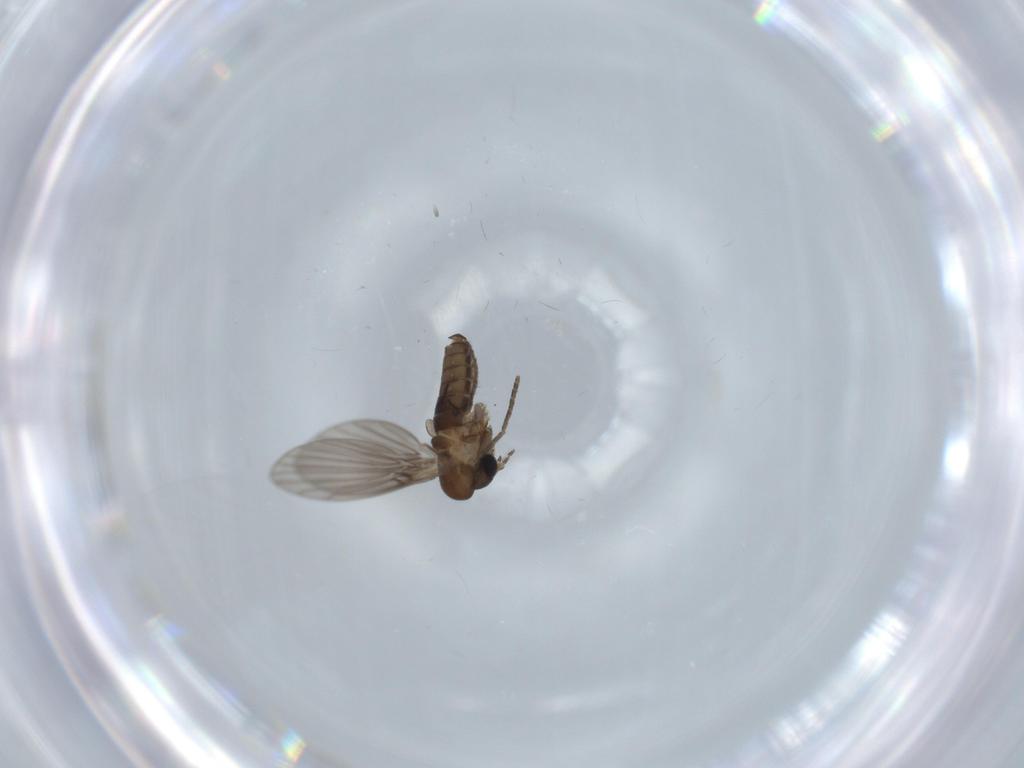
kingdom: Animalia
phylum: Arthropoda
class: Insecta
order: Diptera
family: Psychodidae
